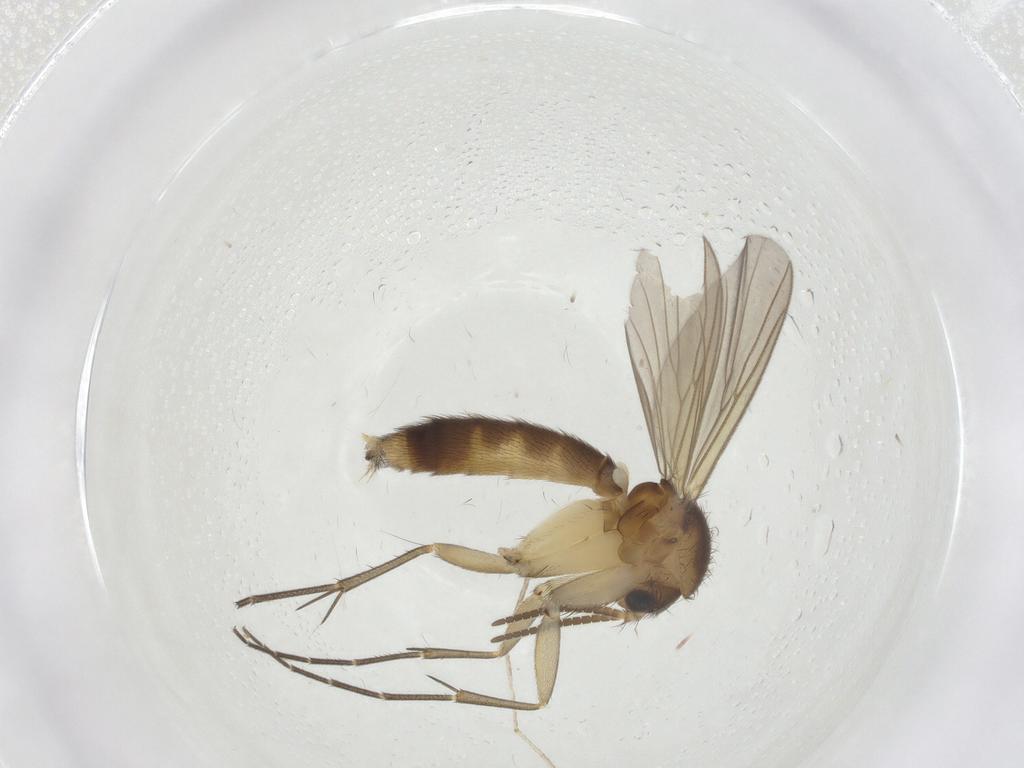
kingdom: Animalia
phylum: Arthropoda
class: Insecta
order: Diptera
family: Cecidomyiidae
